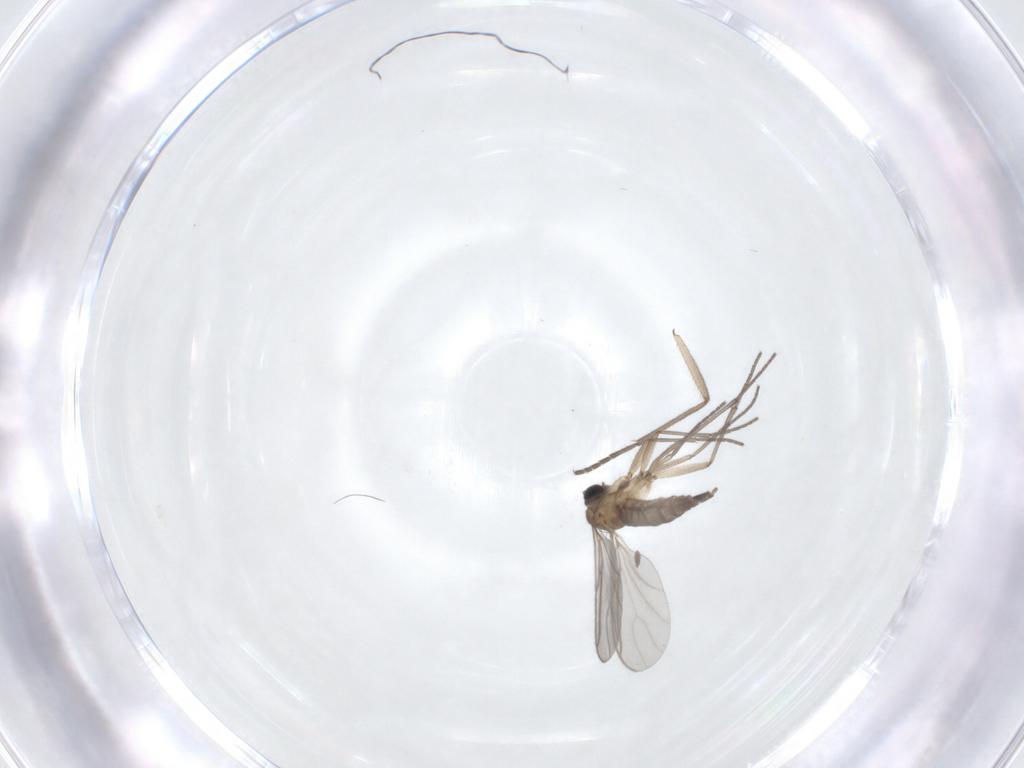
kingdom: Animalia
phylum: Arthropoda
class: Insecta
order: Diptera
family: Sciaridae
